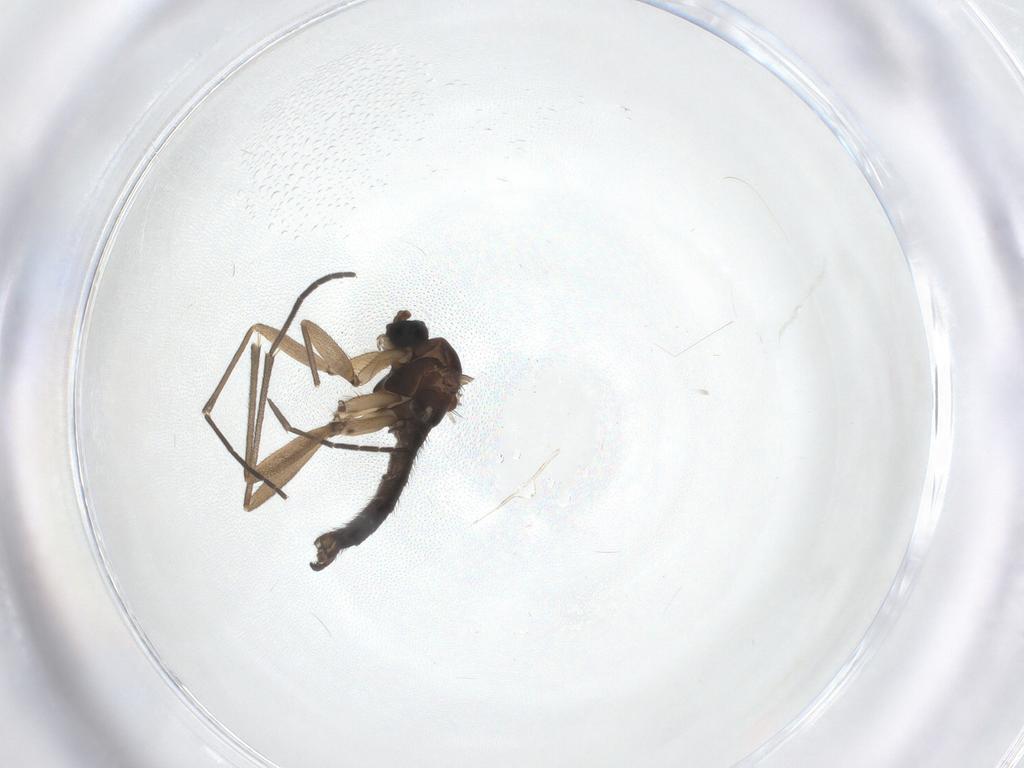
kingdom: Animalia
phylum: Arthropoda
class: Insecta
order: Diptera
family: Sciaridae
